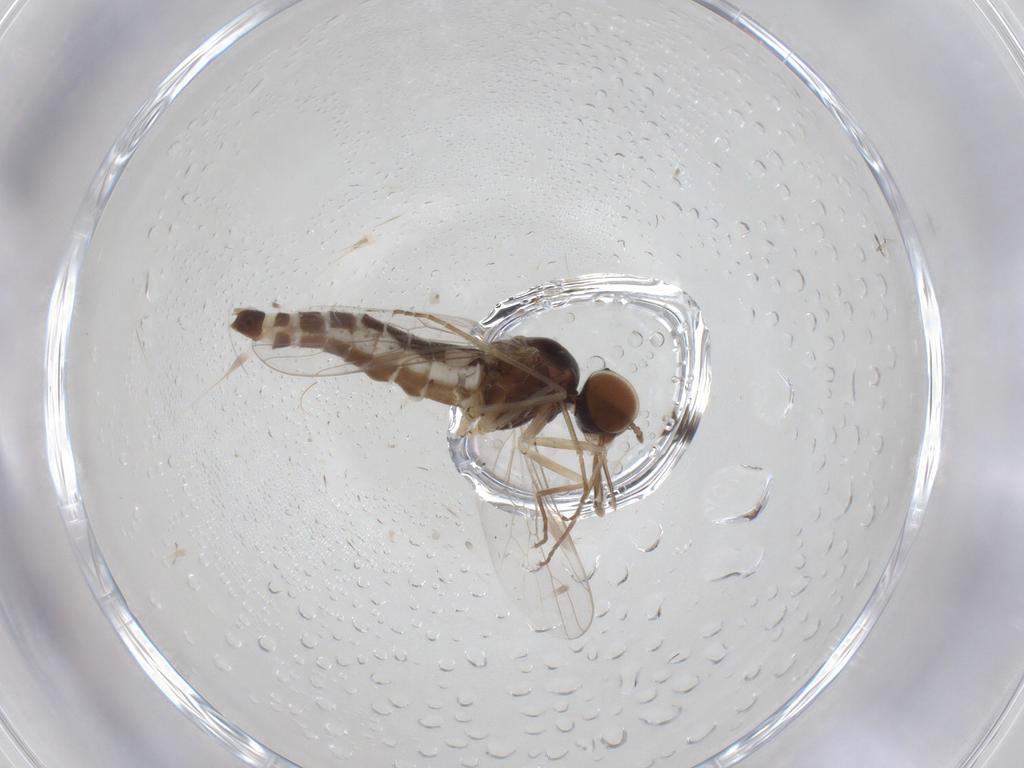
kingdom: Animalia
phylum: Arthropoda
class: Insecta
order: Diptera
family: Scenopinidae
